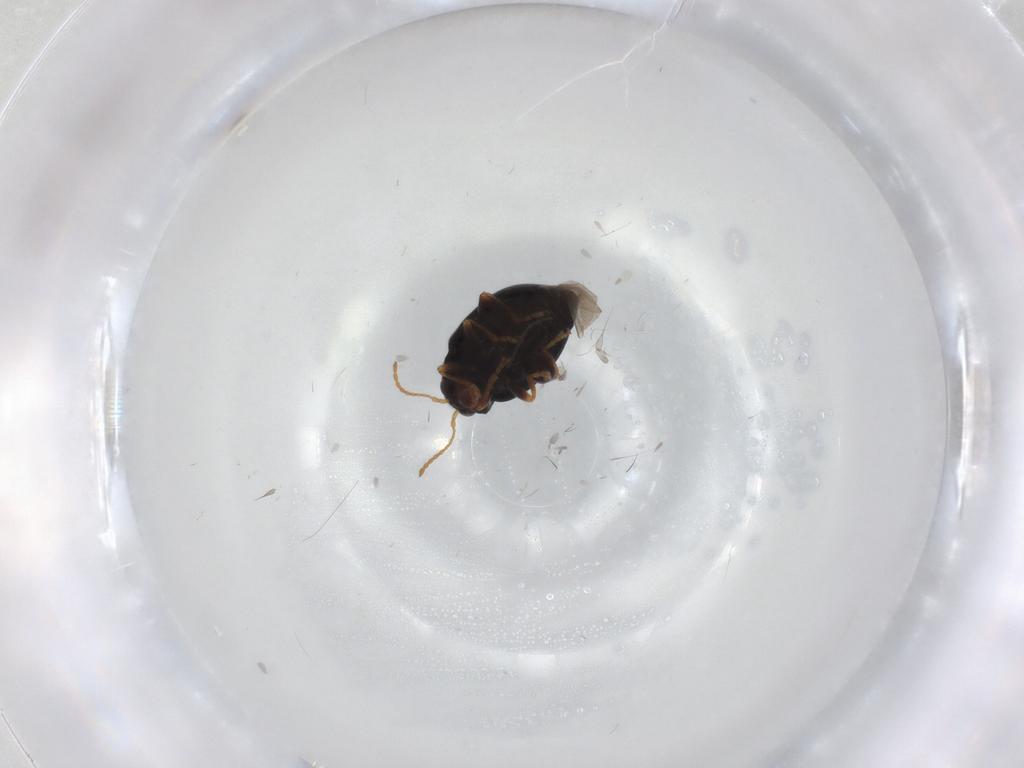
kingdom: Animalia
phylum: Arthropoda
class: Insecta
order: Coleoptera
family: Chrysomelidae
